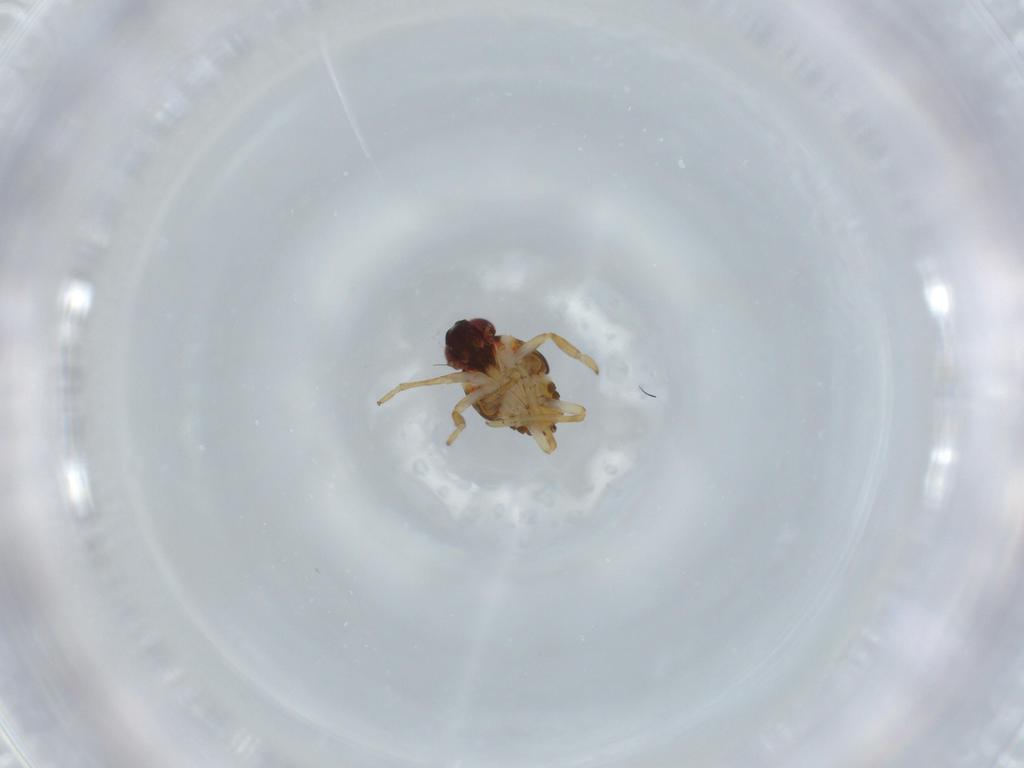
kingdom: Animalia
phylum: Arthropoda
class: Insecta
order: Hemiptera
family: Issidae
